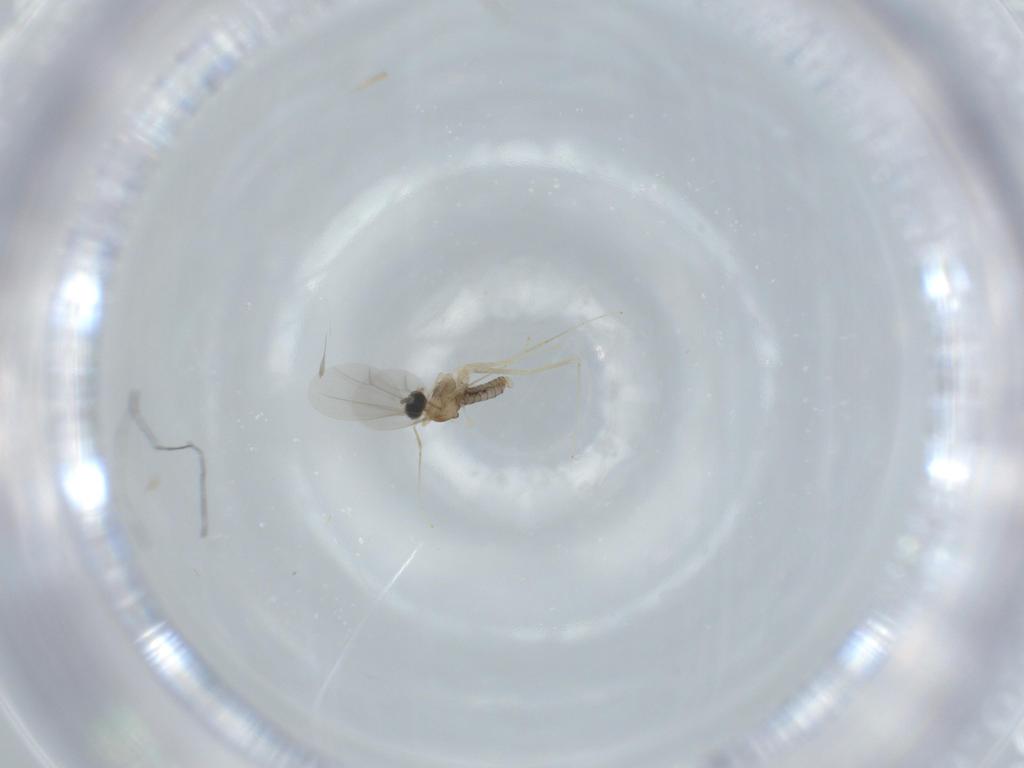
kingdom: Animalia
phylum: Arthropoda
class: Insecta
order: Diptera
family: Cecidomyiidae
